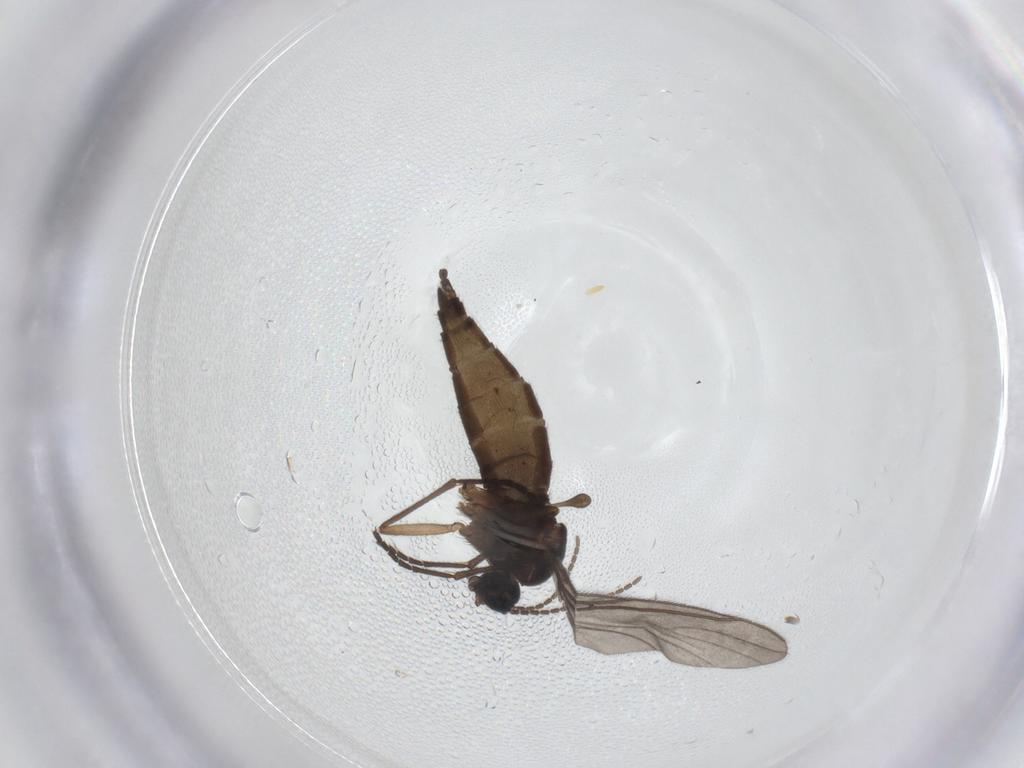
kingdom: Animalia
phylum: Arthropoda
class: Insecta
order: Diptera
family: Sciaridae
